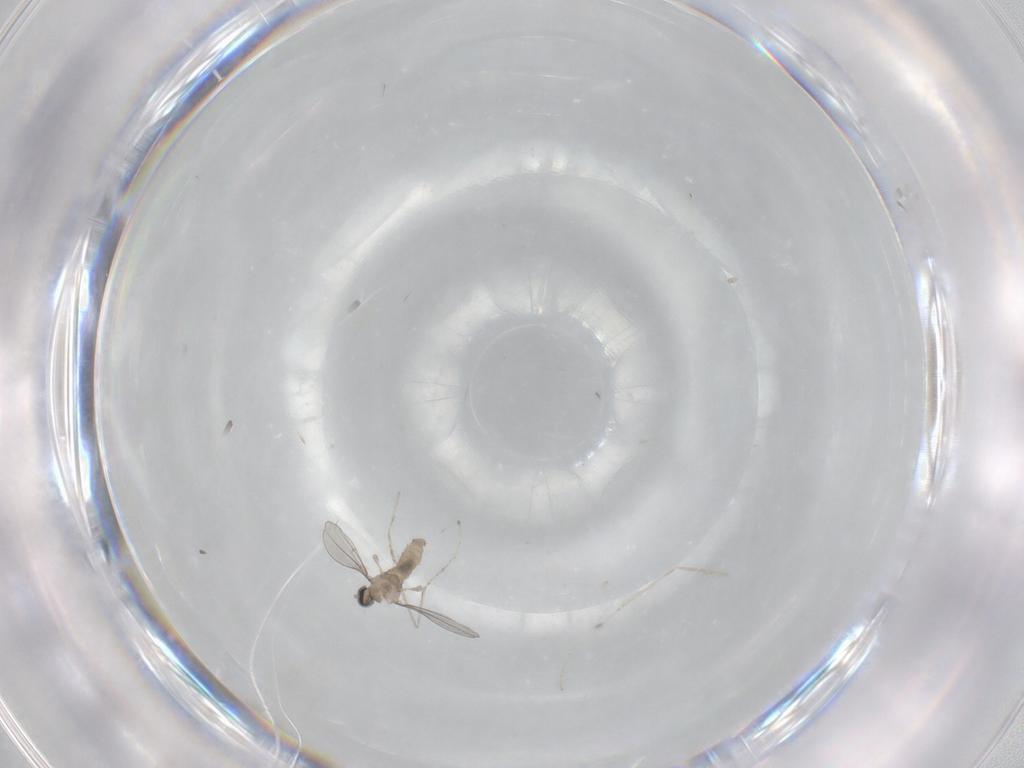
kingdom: Animalia
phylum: Arthropoda
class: Insecta
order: Diptera
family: Cecidomyiidae
